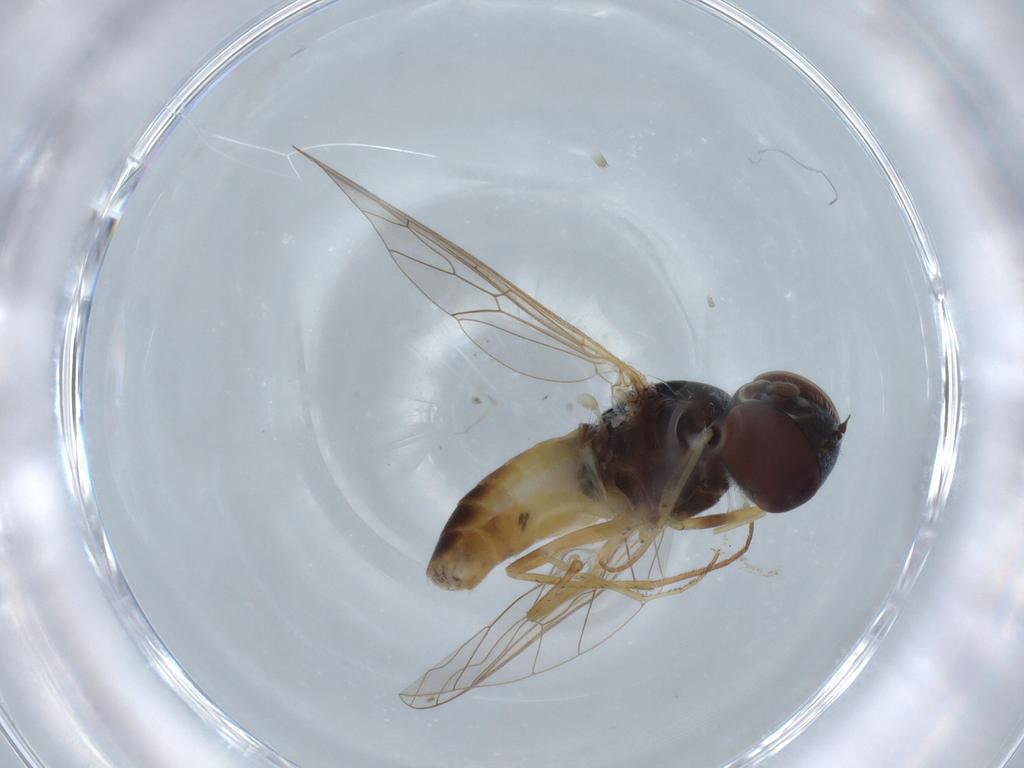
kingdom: Animalia
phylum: Arthropoda
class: Insecta
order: Diptera
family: Bombyliidae
